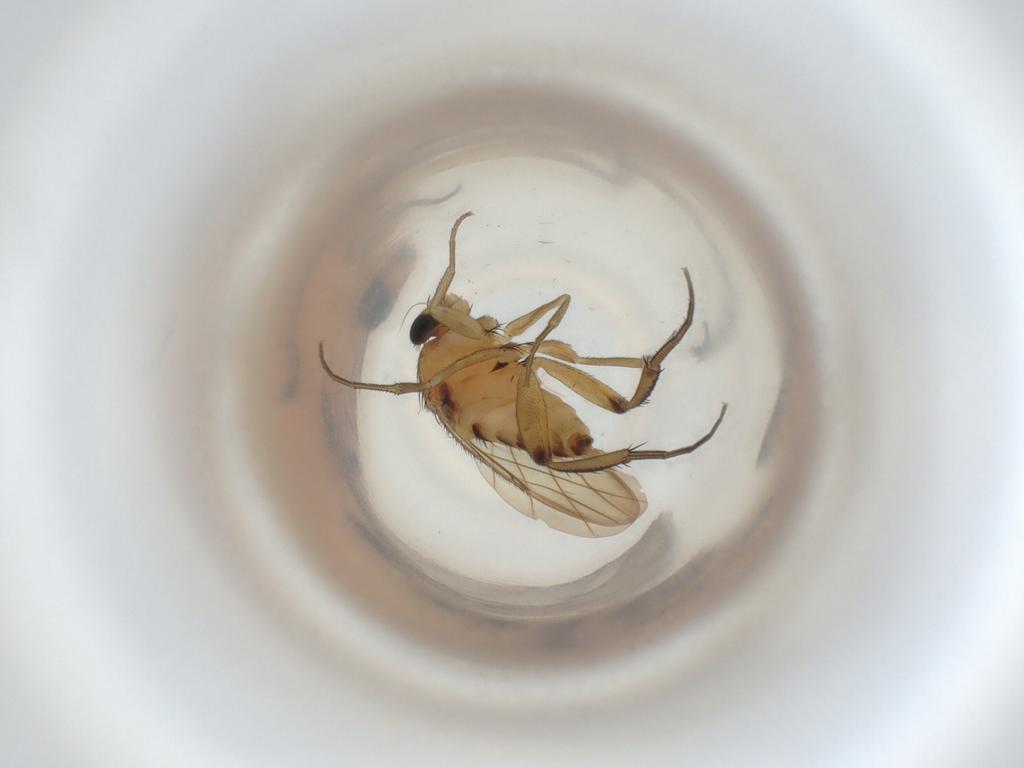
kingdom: Animalia
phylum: Arthropoda
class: Insecta
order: Diptera
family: Phoridae
